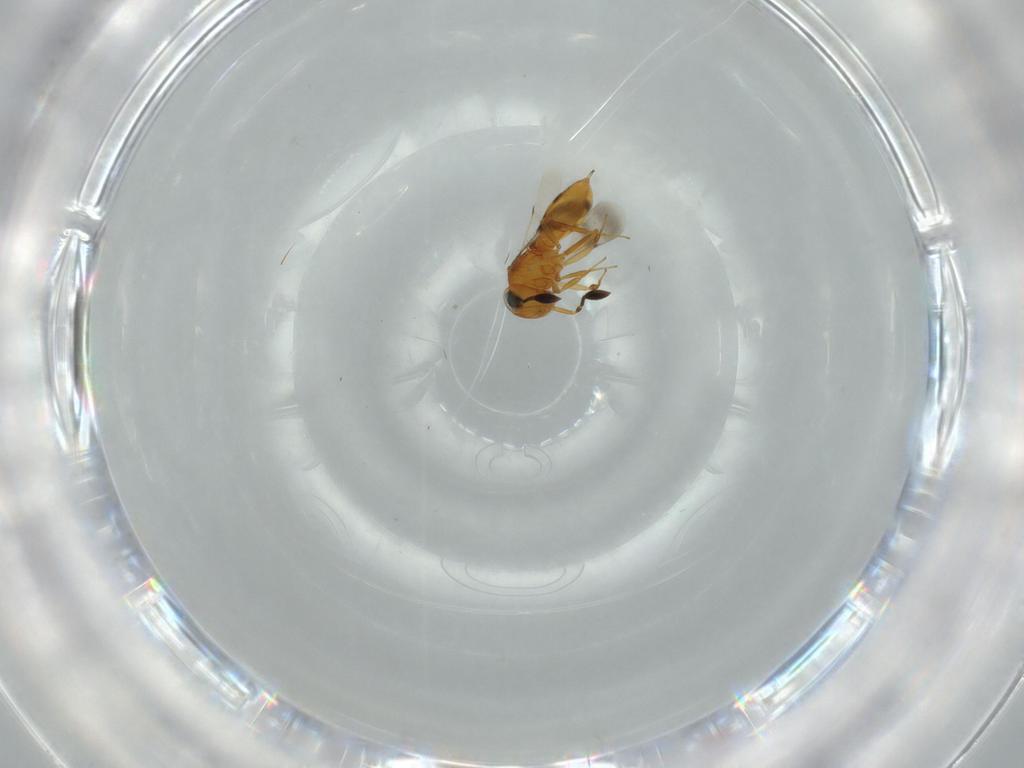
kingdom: Animalia
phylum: Arthropoda
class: Insecta
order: Hymenoptera
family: Scelionidae
